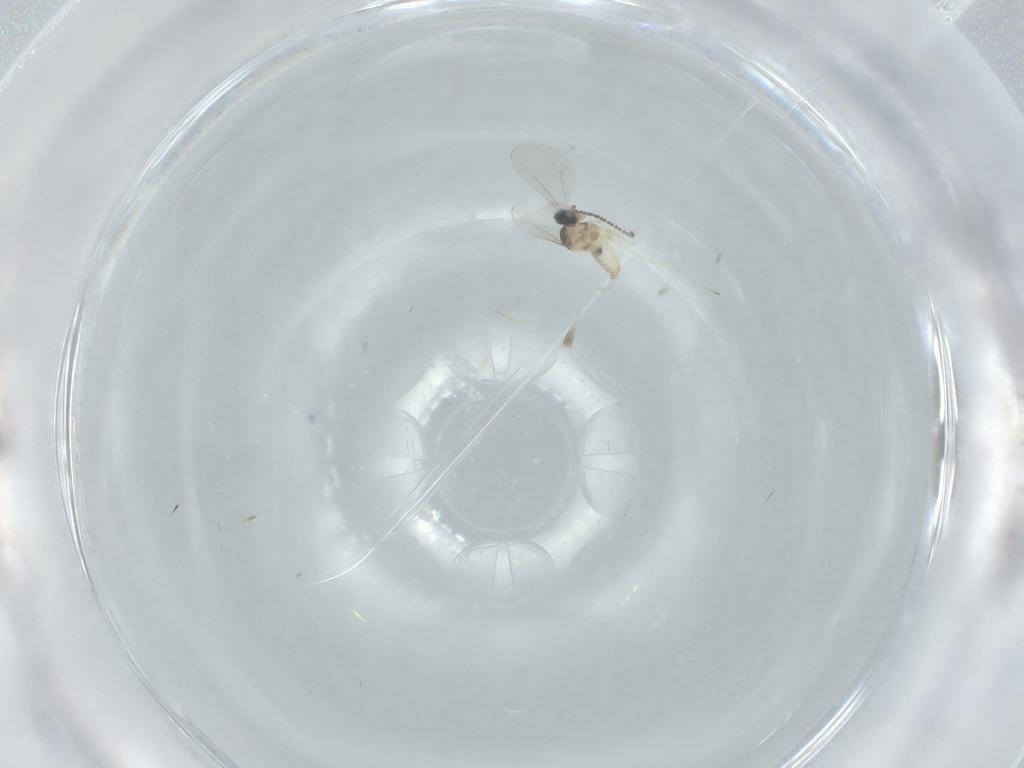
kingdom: Animalia
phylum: Arthropoda
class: Insecta
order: Diptera
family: Cecidomyiidae
